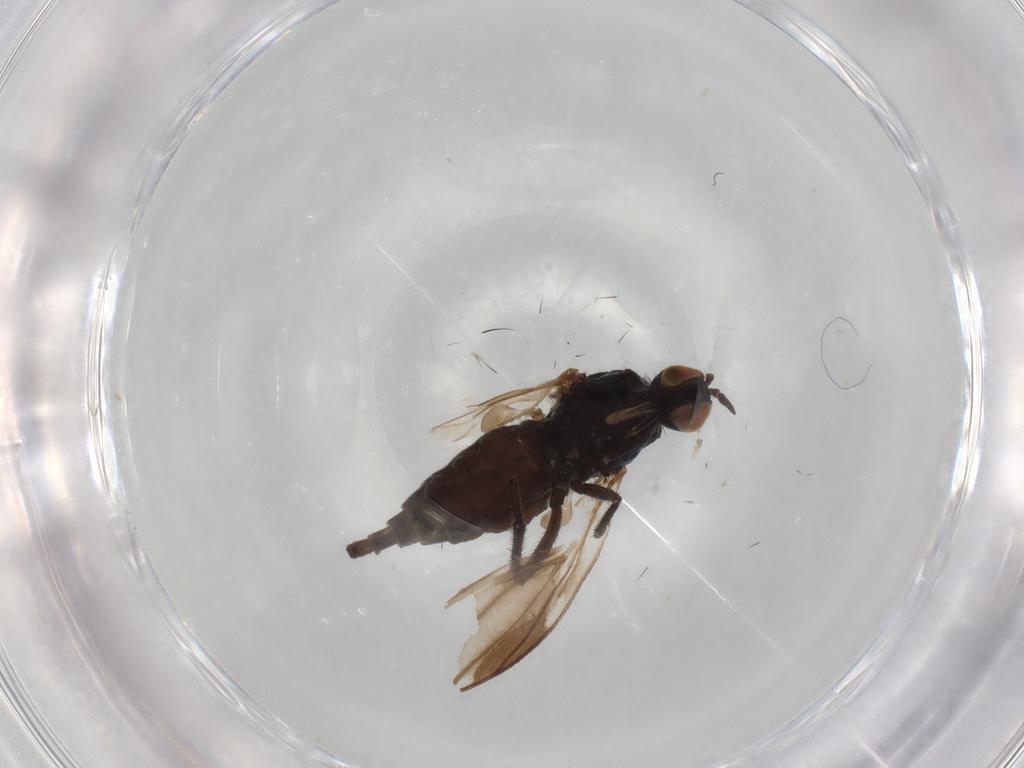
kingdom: Animalia
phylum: Arthropoda
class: Insecta
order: Diptera
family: Empididae
